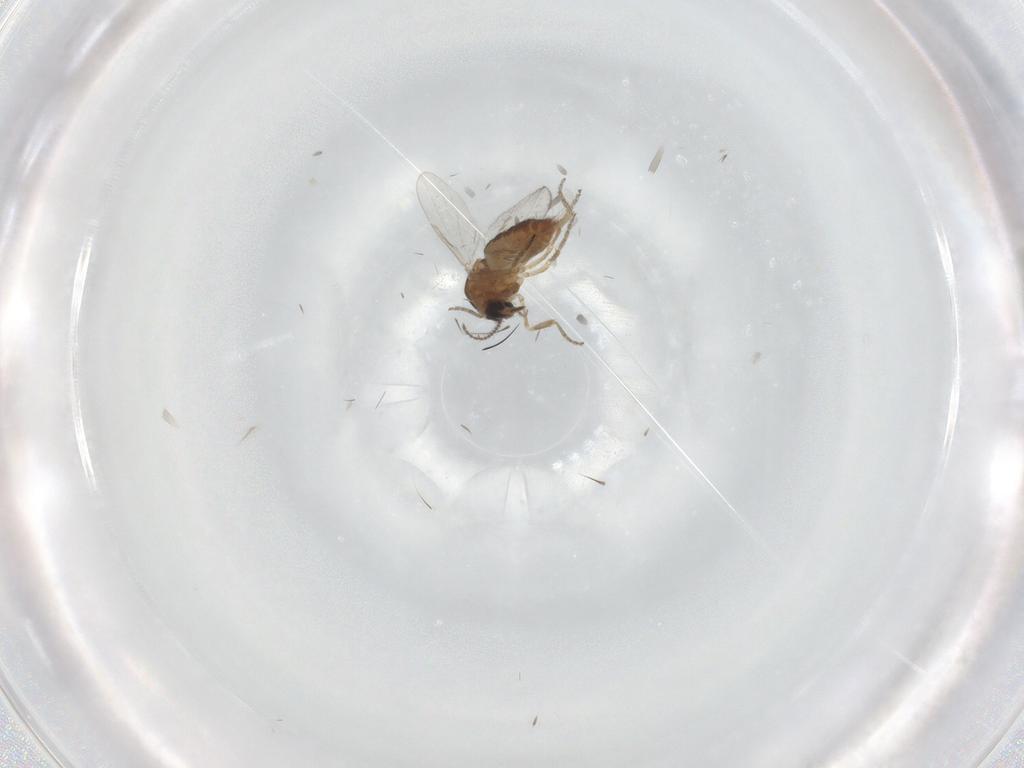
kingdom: Animalia
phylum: Arthropoda
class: Insecta
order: Diptera
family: Ceratopogonidae
